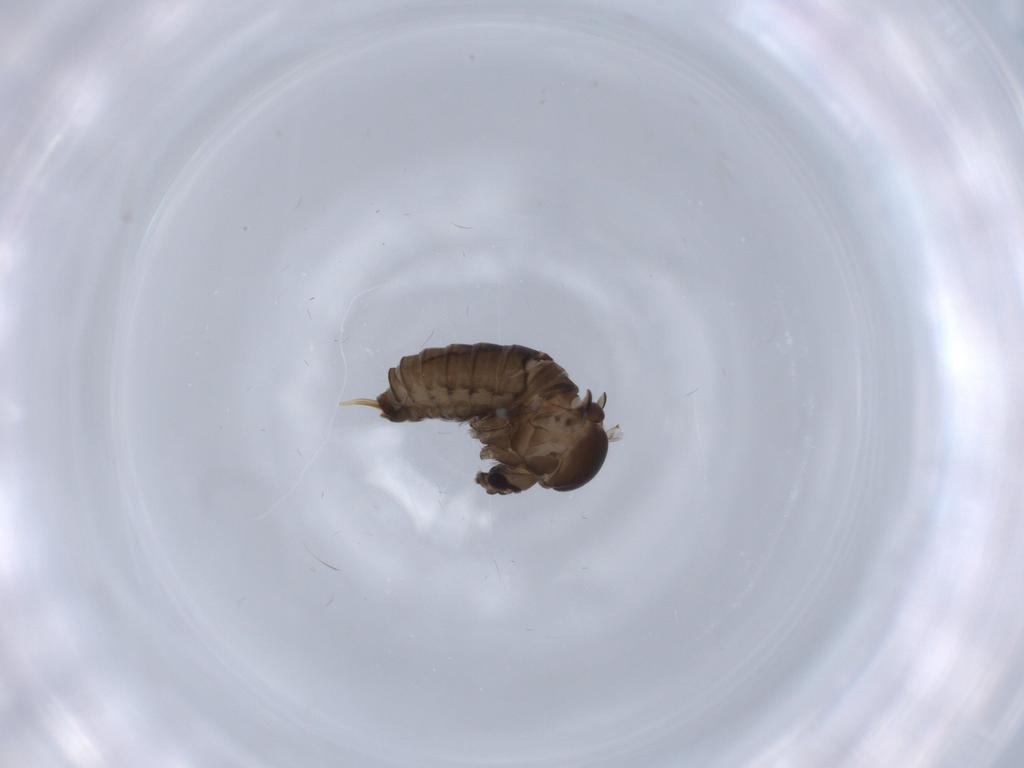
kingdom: Animalia
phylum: Arthropoda
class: Insecta
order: Diptera
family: Psychodidae
